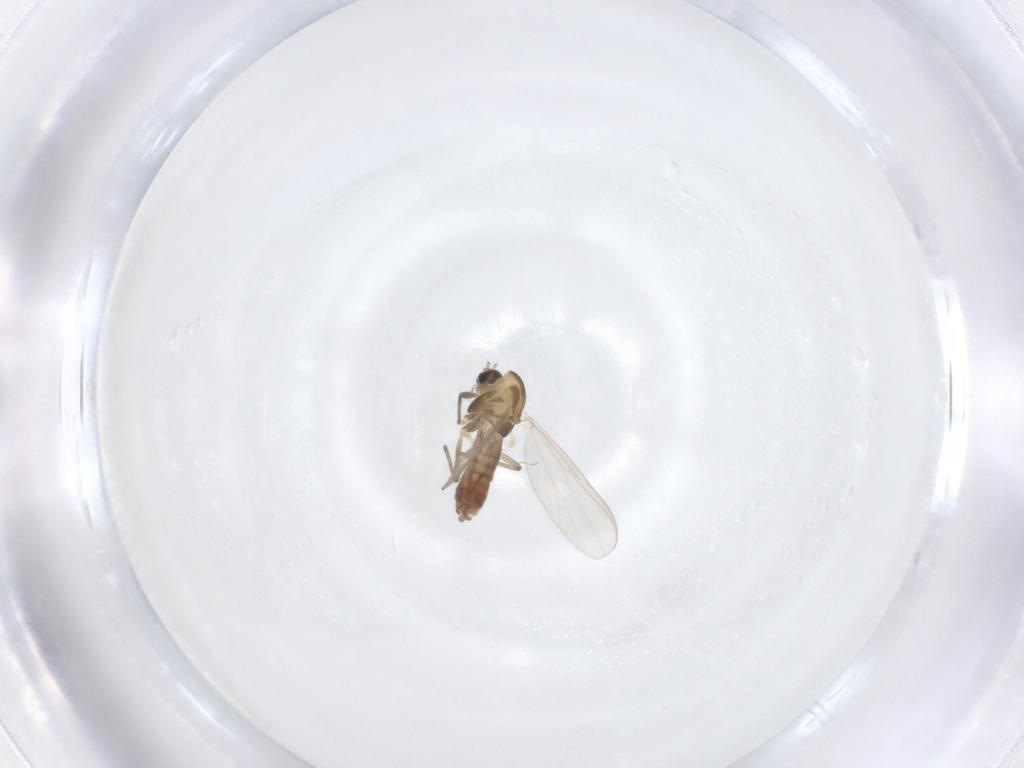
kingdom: Animalia
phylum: Arthropoda
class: Insecta
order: Diptera
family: Chironomidae
